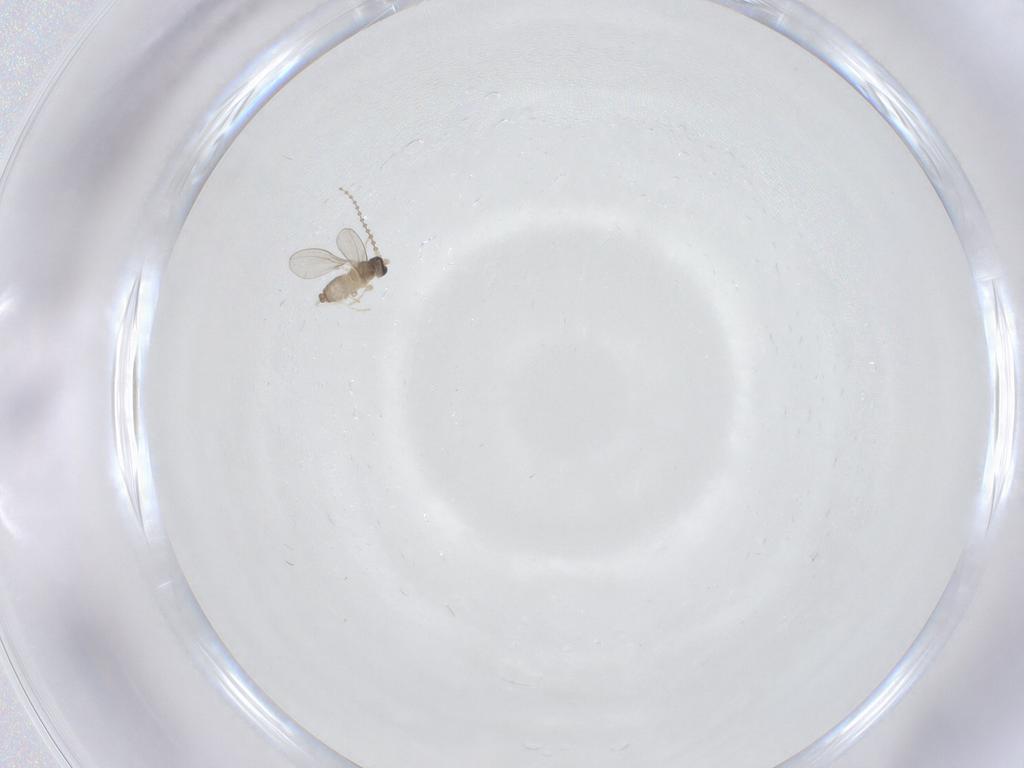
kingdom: Animalia
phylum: Arthropoda
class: Insecta
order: Diptera
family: Cecidomyiidae
